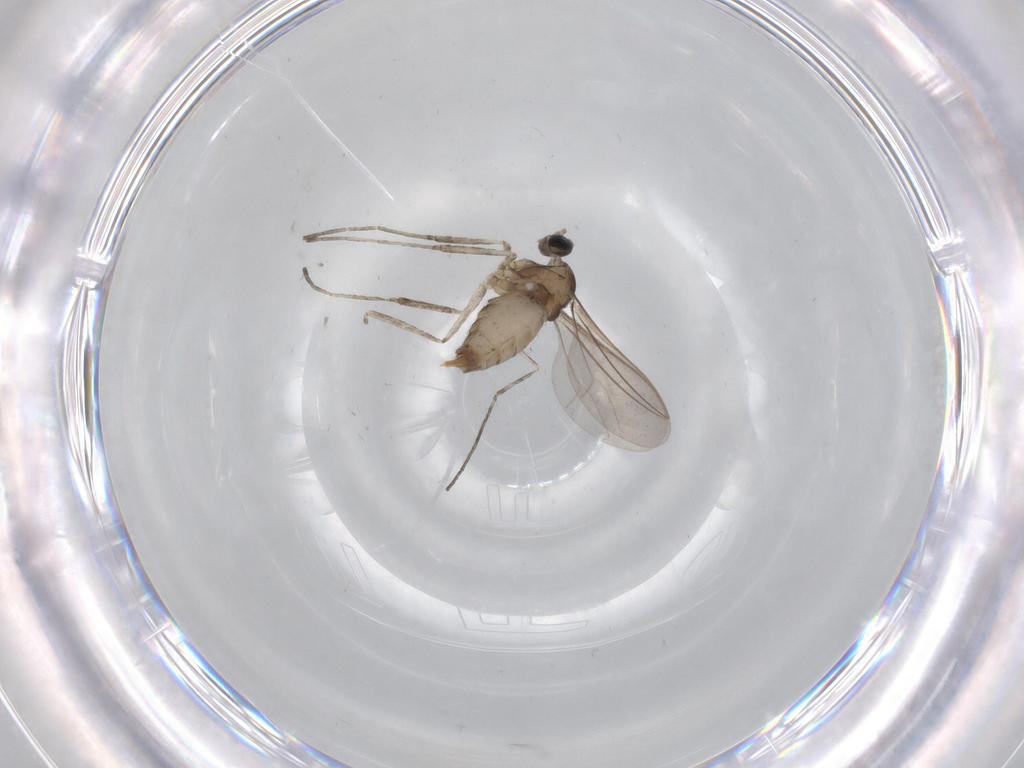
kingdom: Animalia
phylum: Arthropoda
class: Insecta
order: Diptera
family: Cecidomyiidae
